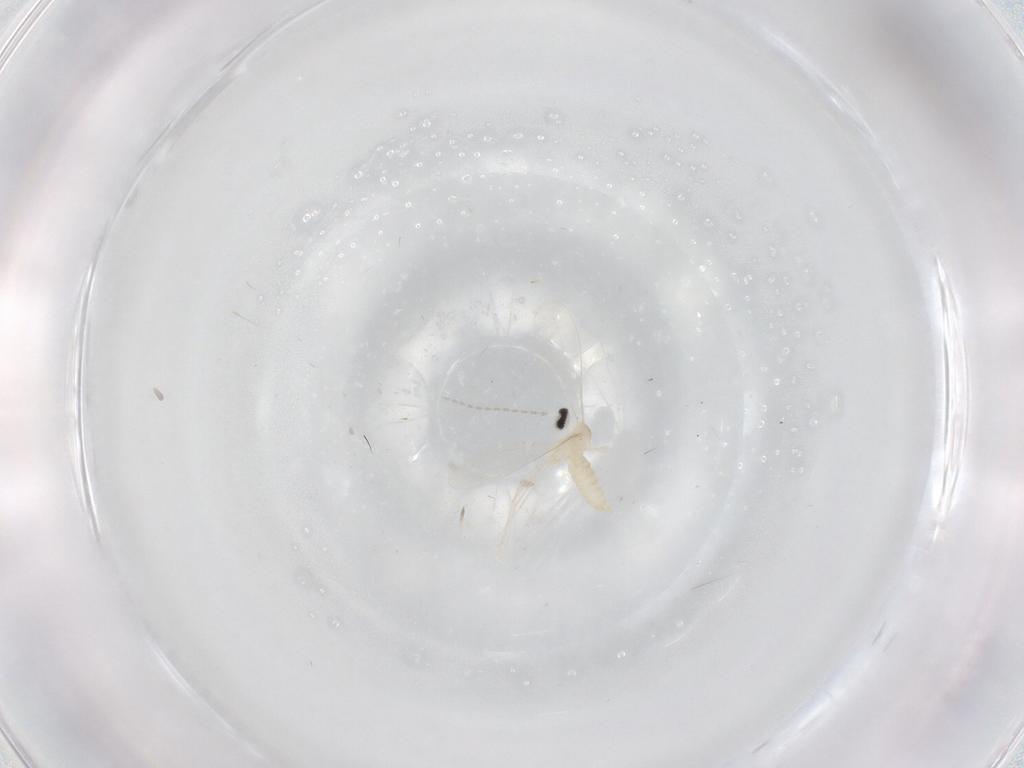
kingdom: Animalia
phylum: Arthropoda
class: Insecta
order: Diptera
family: Cecidomyiidae
